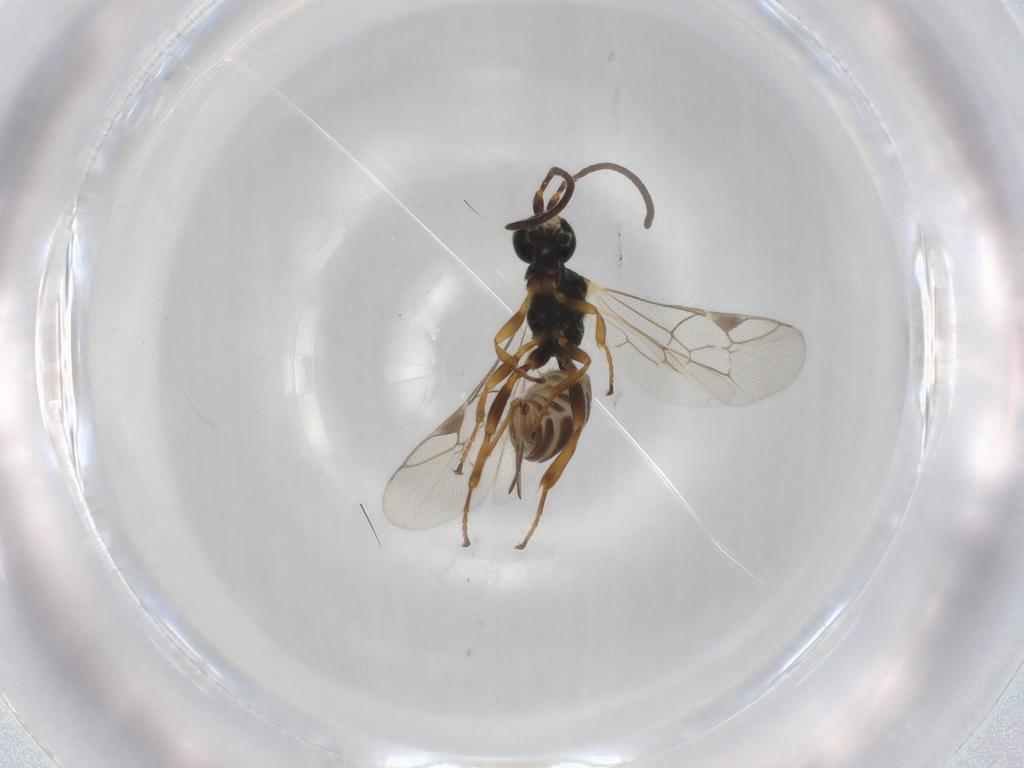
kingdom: Animalia
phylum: Arthropoda
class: Insecta
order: Hymenoptera
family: Ichneumonidae
